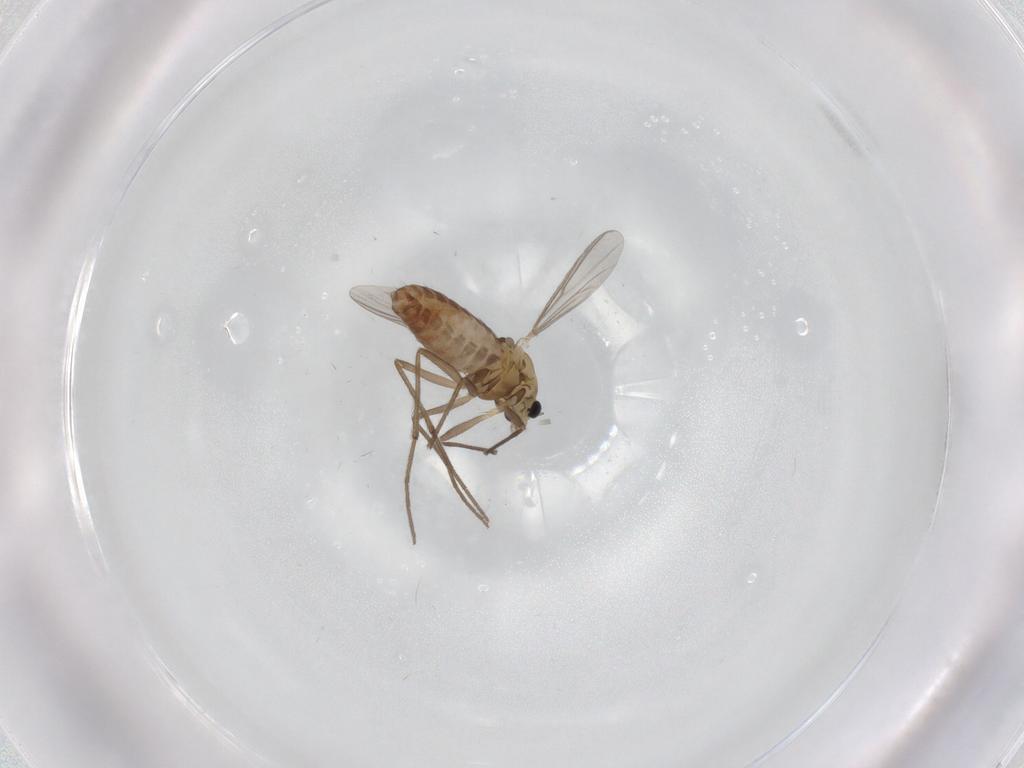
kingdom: Animalia
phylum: Arthropoda
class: Insecta
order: Diptera
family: Chironomidae
